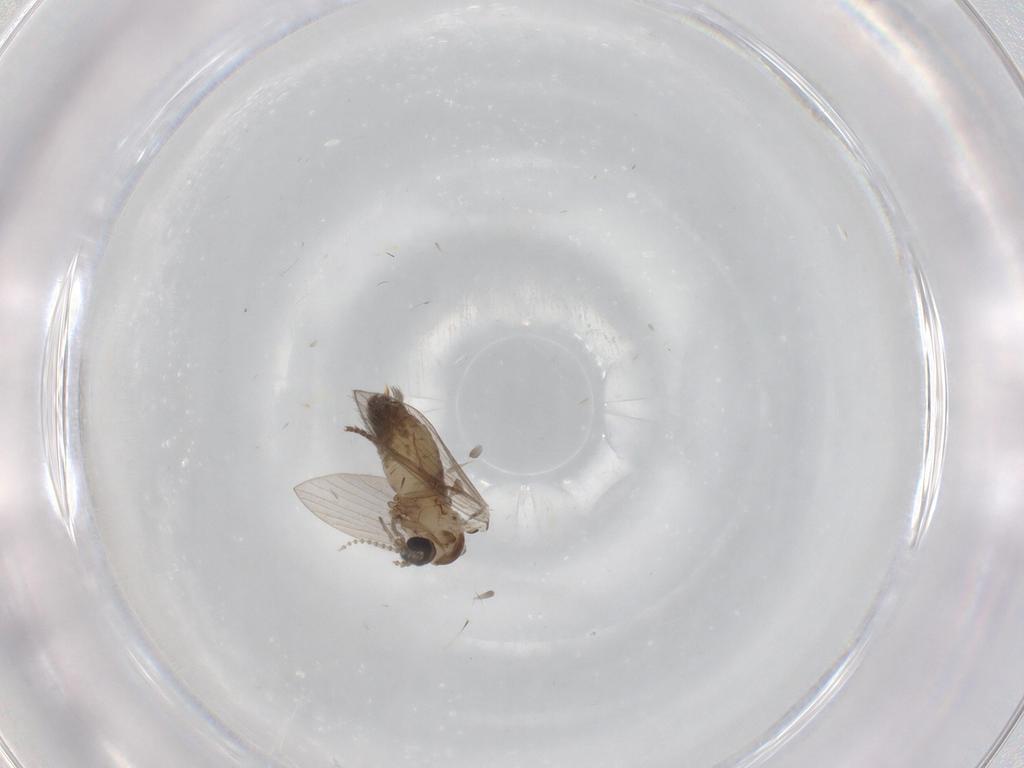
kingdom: Animalia
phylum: Arthropoda
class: Insecta
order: Diptera
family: Psychodidae
